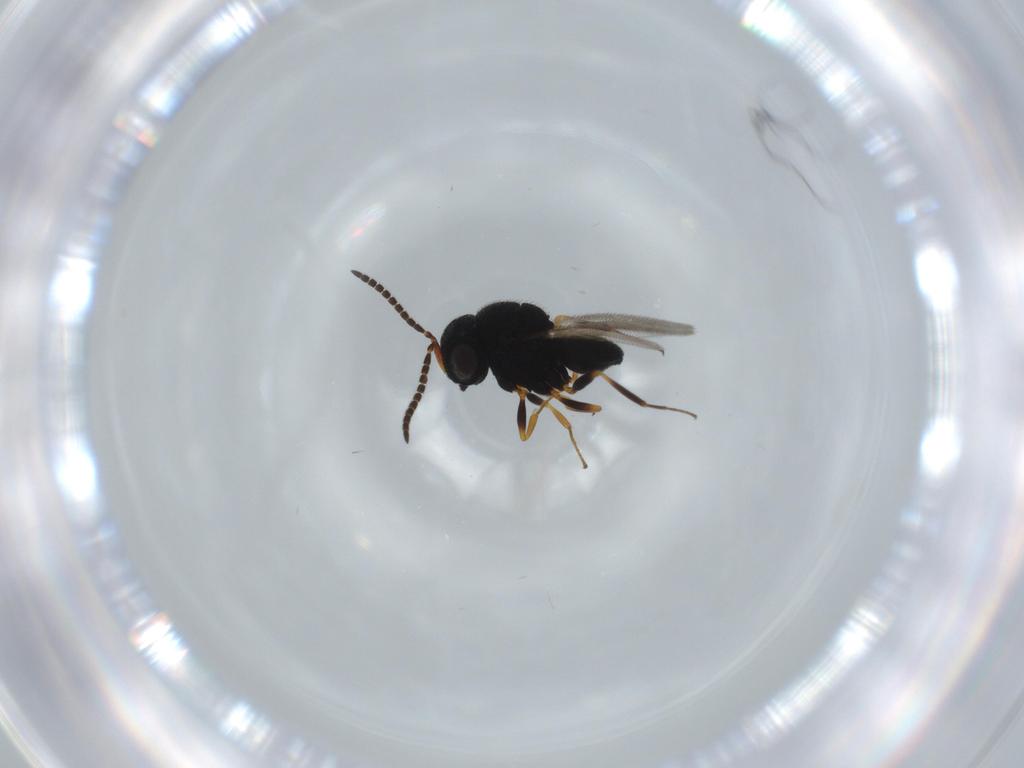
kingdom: Animalia
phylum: Arthropoda
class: Insecta
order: Hymenoptera
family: Scelionidae
